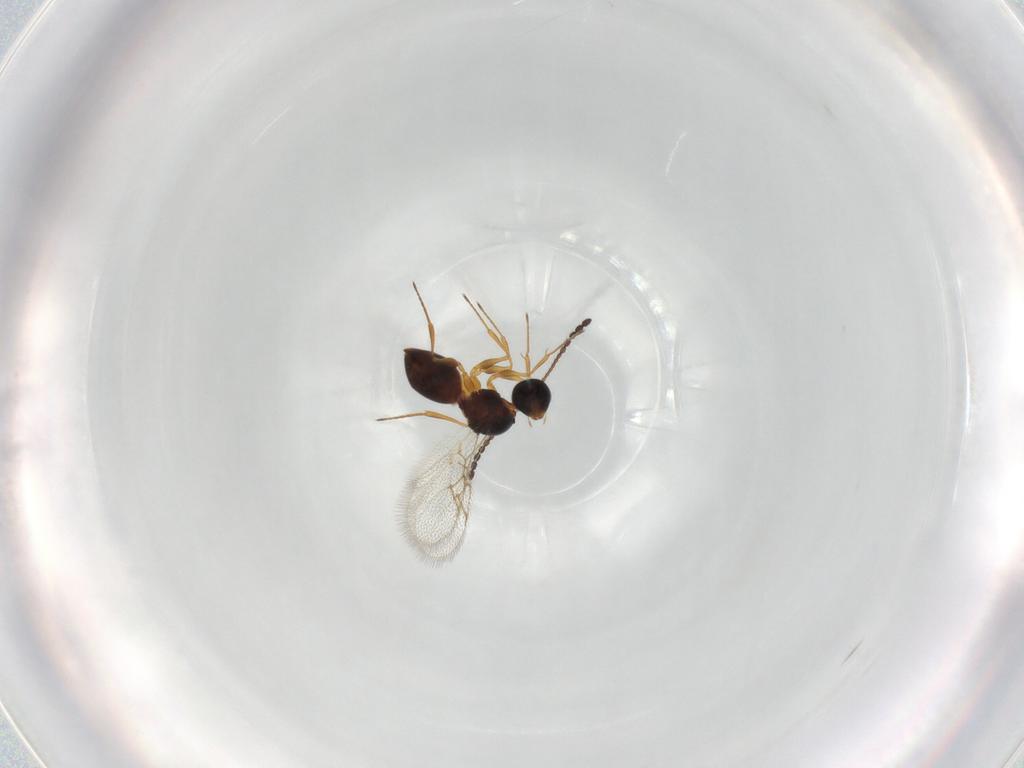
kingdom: Animalia
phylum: Arthropoda
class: Insecta
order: Hymenoptera
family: Figitidae
